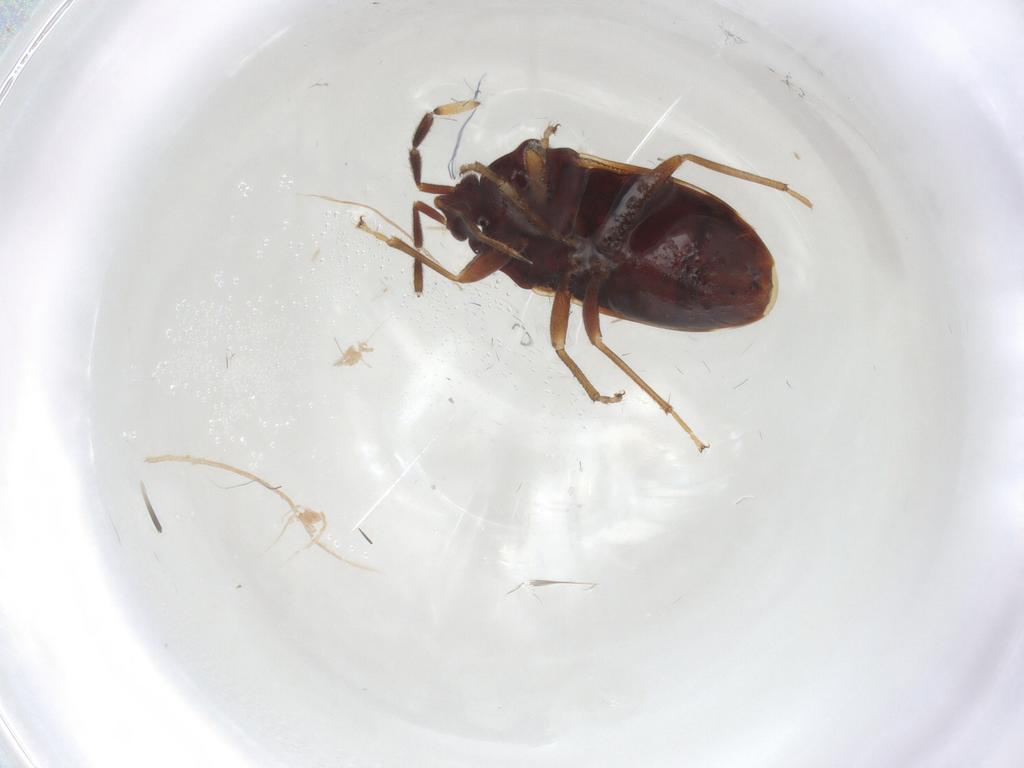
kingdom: Animalia
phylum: Arthropoda
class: Insecta
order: Hemiptera
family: Rhyparochromidae
